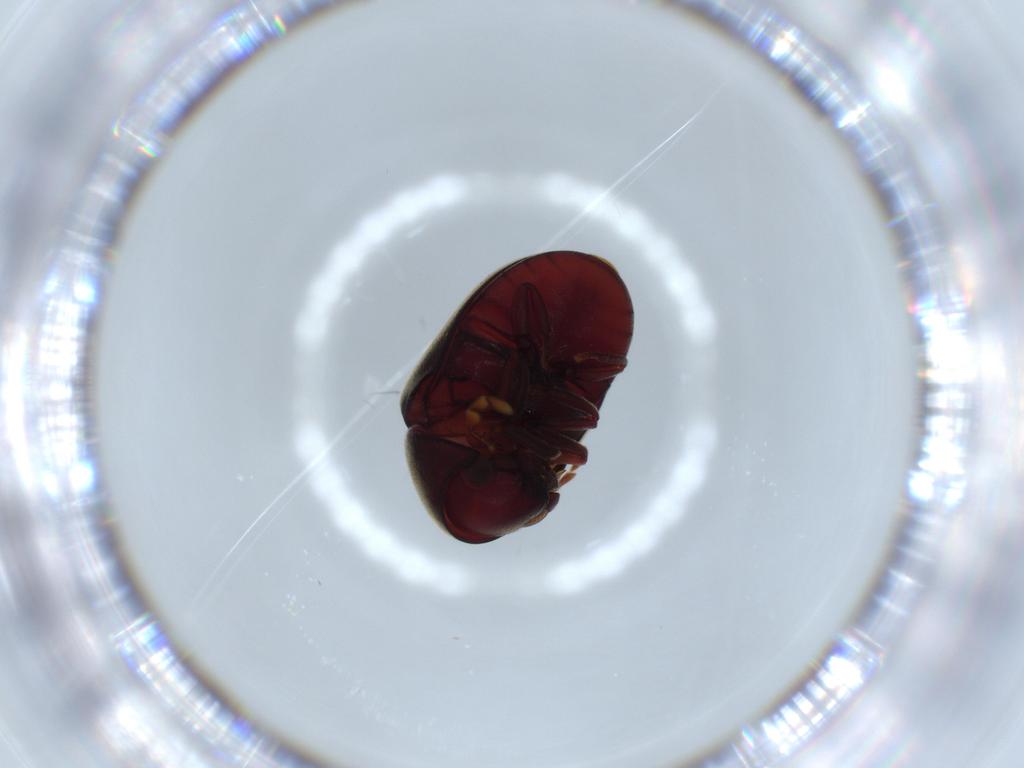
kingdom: Animalia
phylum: Arthropoda
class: Insecta
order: Coleoptera
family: Ptinidae
